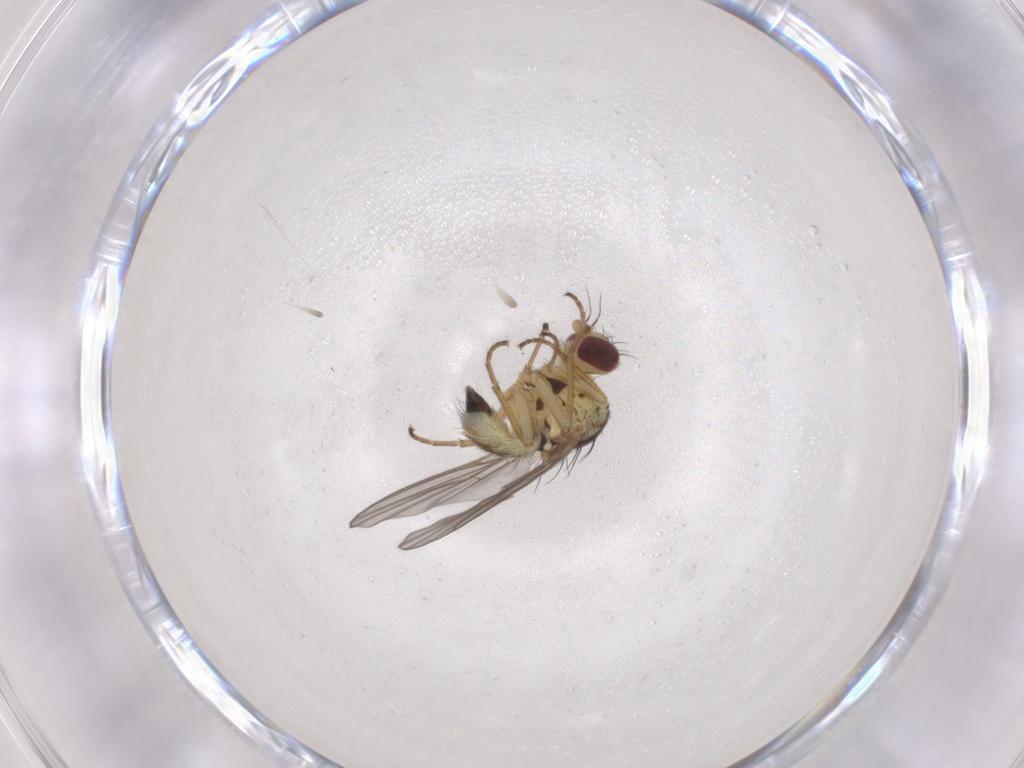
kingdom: Animalia
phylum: Arthropoda
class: Insecta
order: Diptera
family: Agromyzidae
